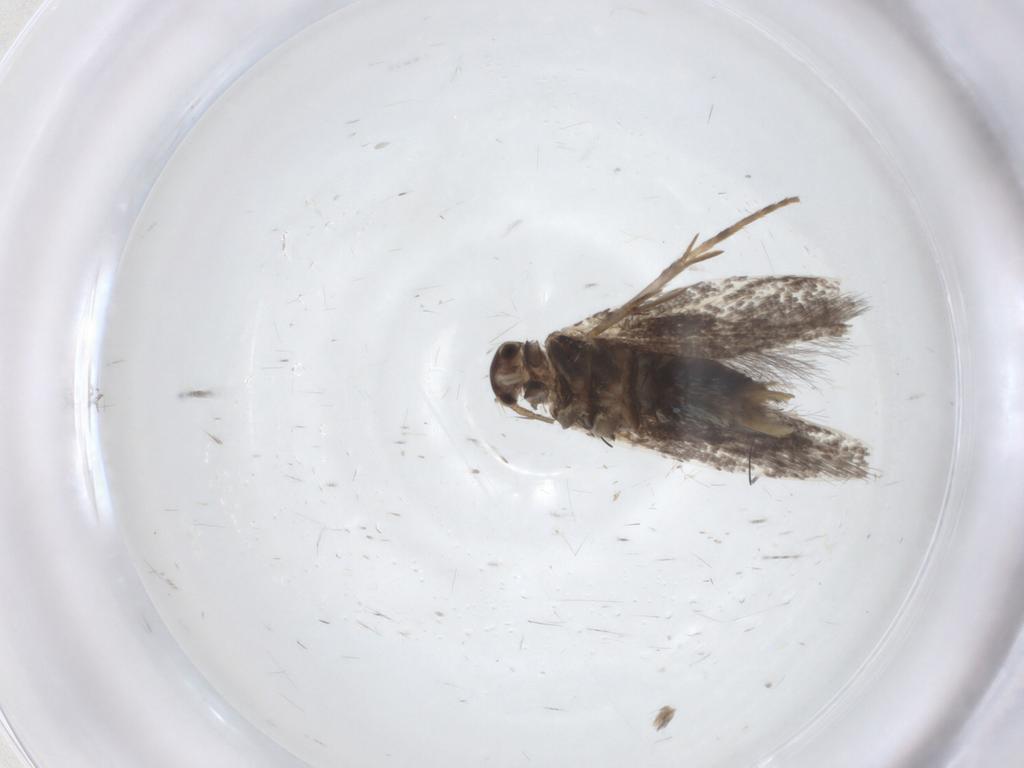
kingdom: Animalia
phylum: Arthropoda
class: Insecta
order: Lepidoptera
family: Elachistidae
